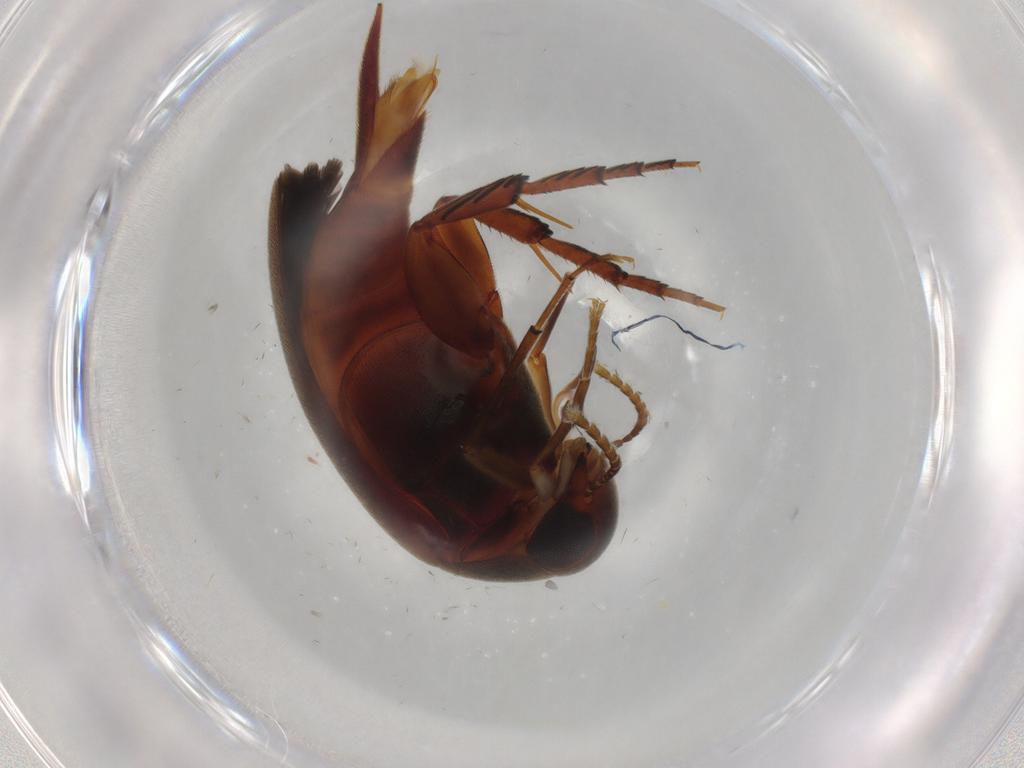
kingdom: Animalia
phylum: Arthropoda
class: Insecta
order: Coleoptera
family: Mordellidae
